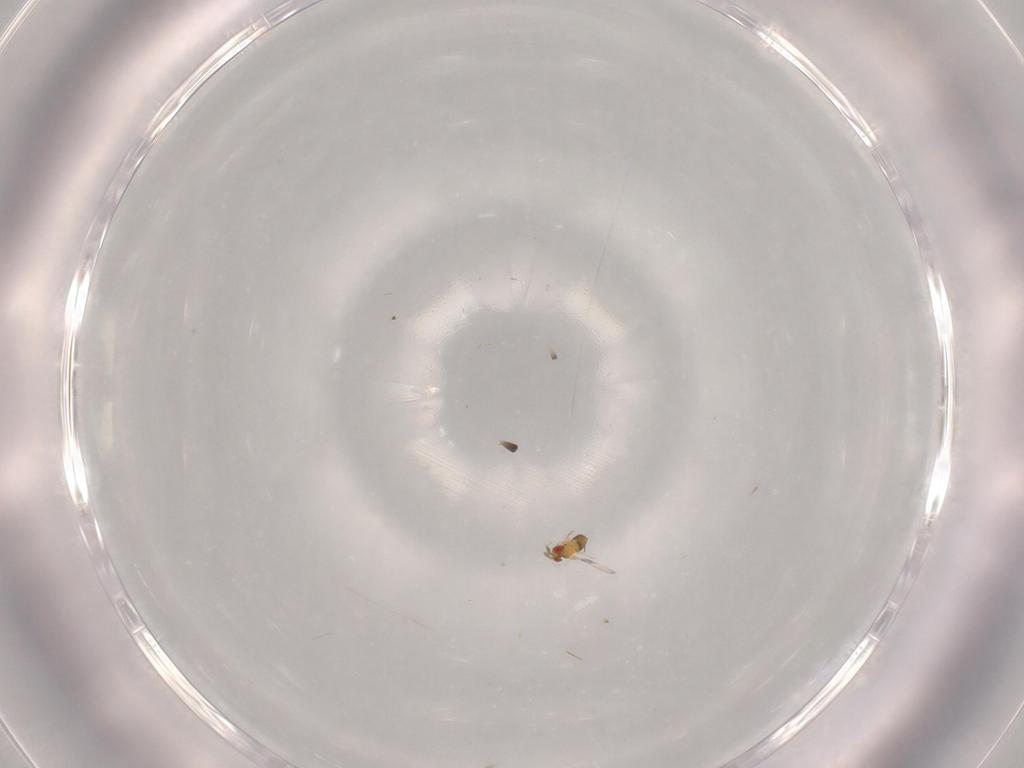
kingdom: Animalia
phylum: Arthropoda
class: Insecta
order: Hymenoptera
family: Trichogrammatidae
